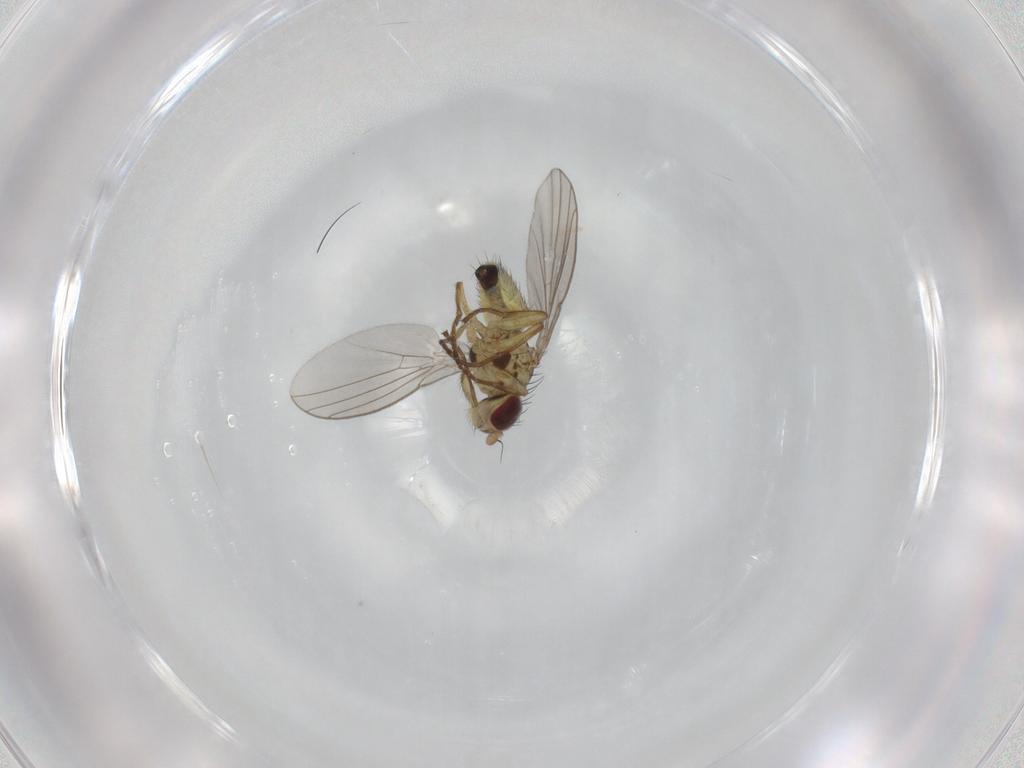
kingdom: Animalia
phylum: Arthropoda
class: Insecta
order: Diptera
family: Agromyzidae
